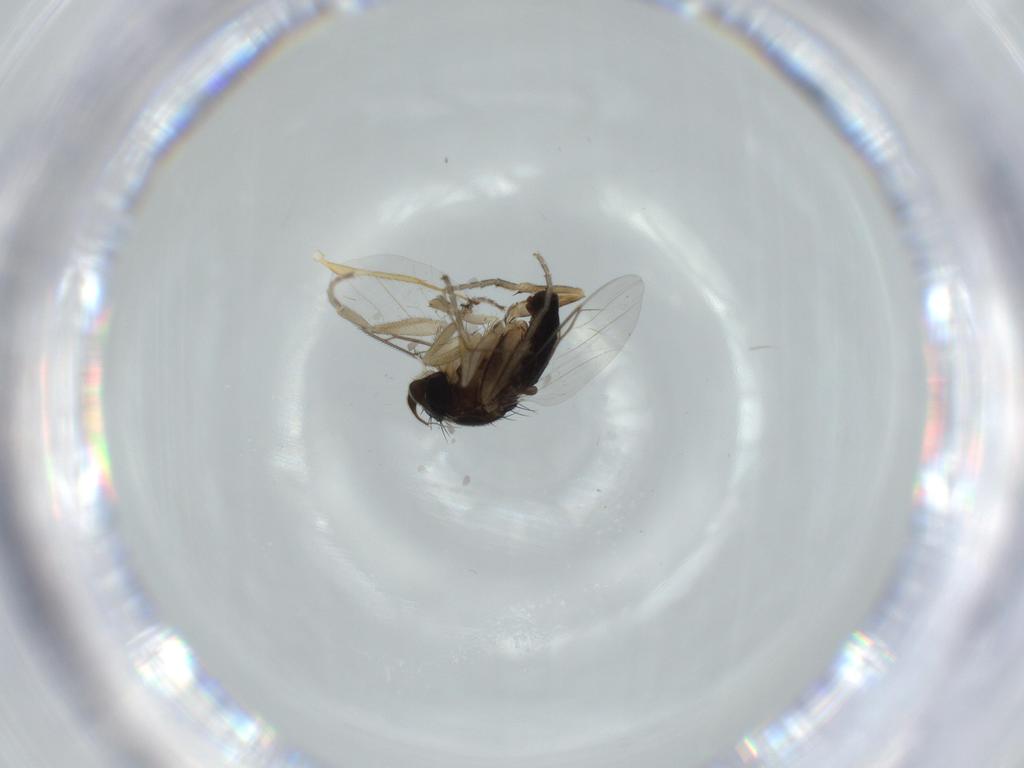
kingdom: Animalia
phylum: Arthropoda
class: Insecta
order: Diptera
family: Phoridae
